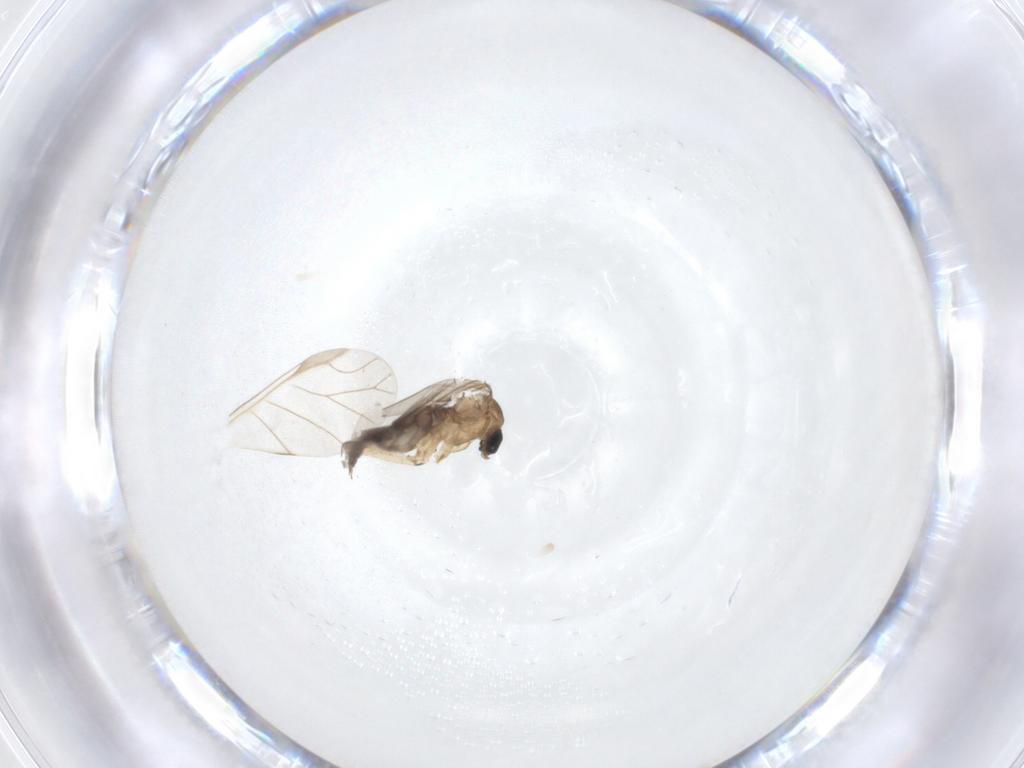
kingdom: Animalia
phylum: Arthropoda
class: Insecta
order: Diptera
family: Sciaridae
